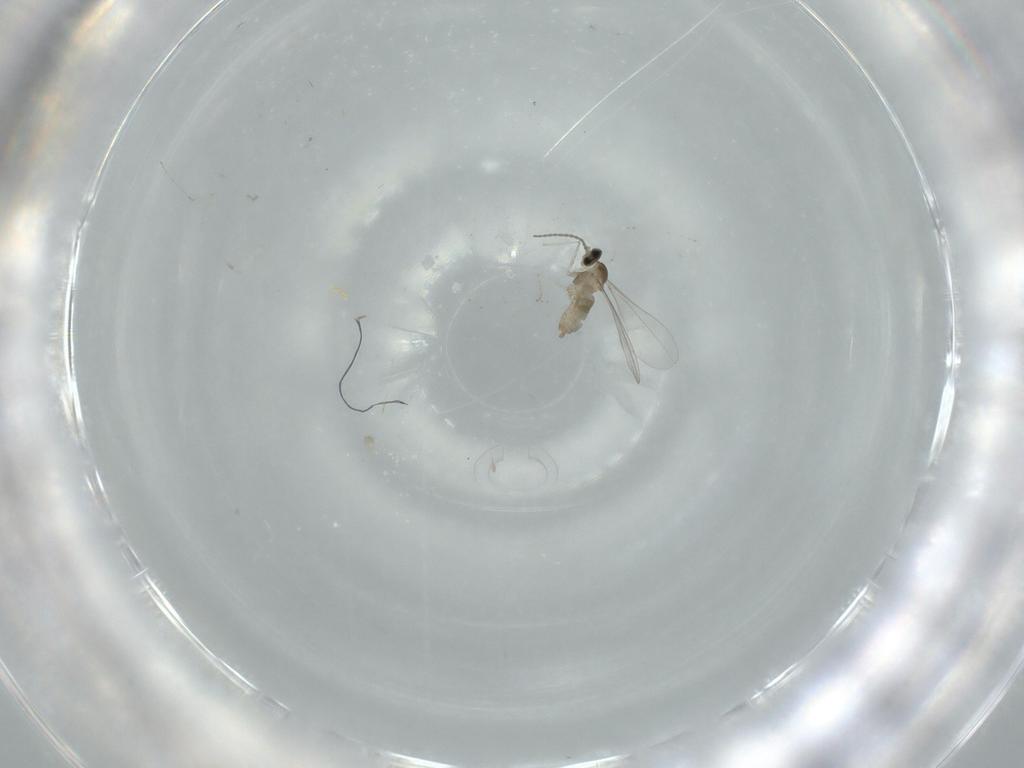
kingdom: Animalia
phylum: Arthropoda
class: Insecta
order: Diptera
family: Cecidomyiidae
